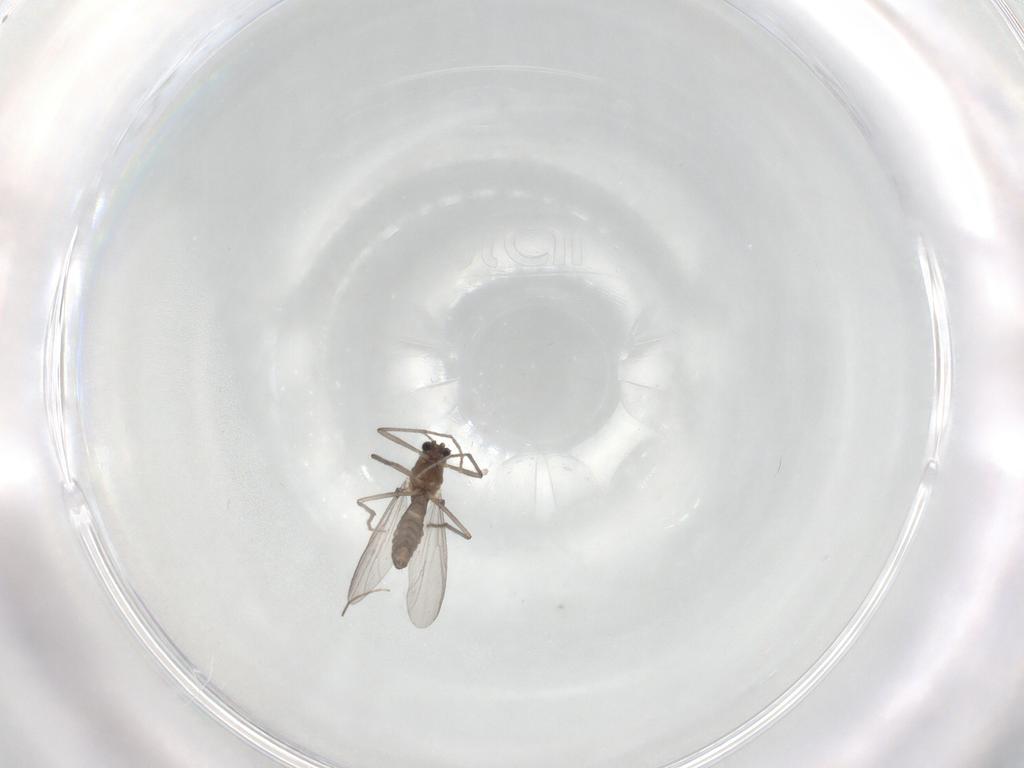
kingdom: Animalia
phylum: Arthropoda
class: Insecta
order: Diptera
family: Chironomidae
